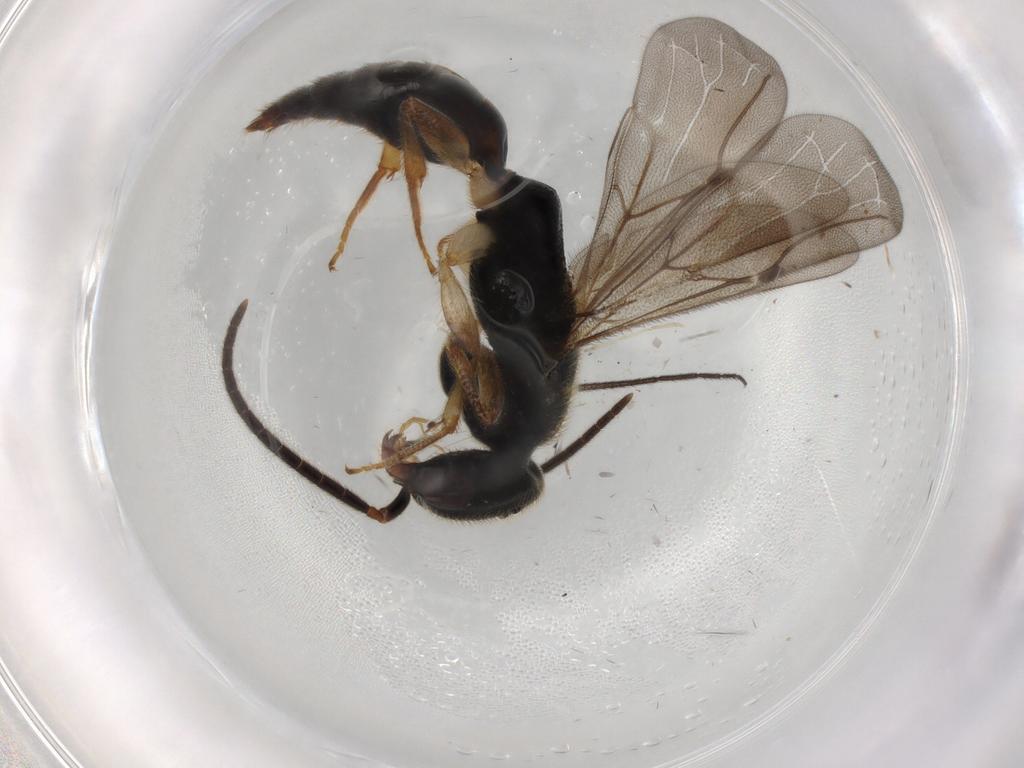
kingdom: Animalia
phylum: Arthropoda
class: Insecta
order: Hymenoptera
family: Bethylidae
